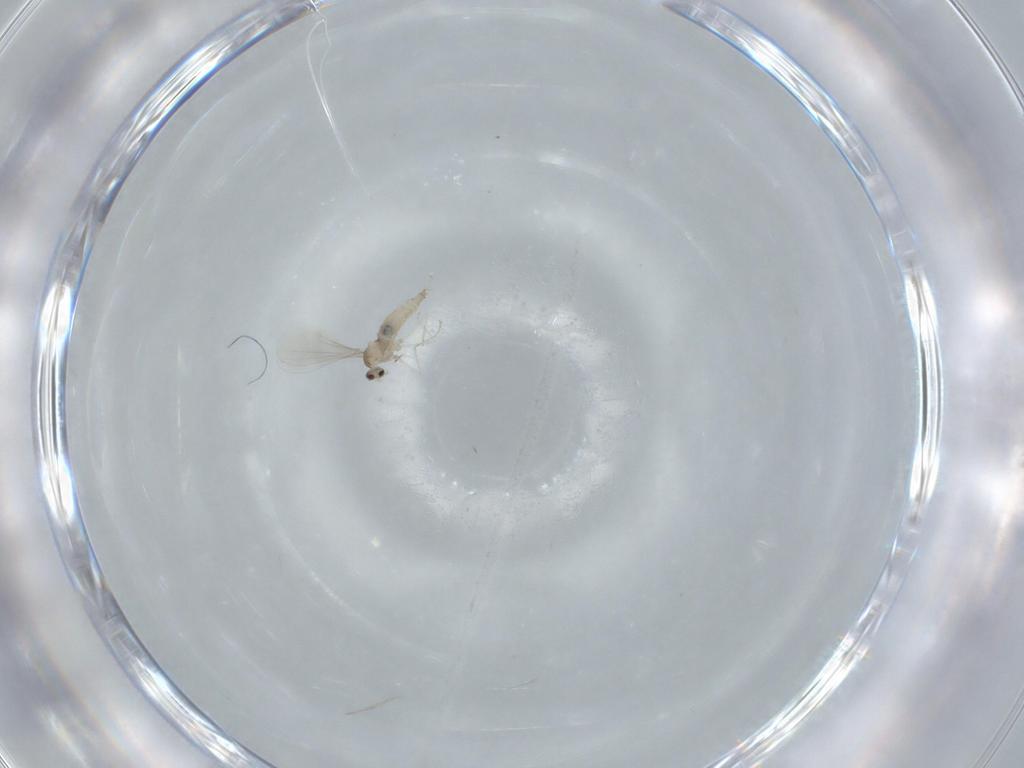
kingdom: Animalia
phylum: Arthropoda
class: Insecta
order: Diptera
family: Cecidomyiidae
